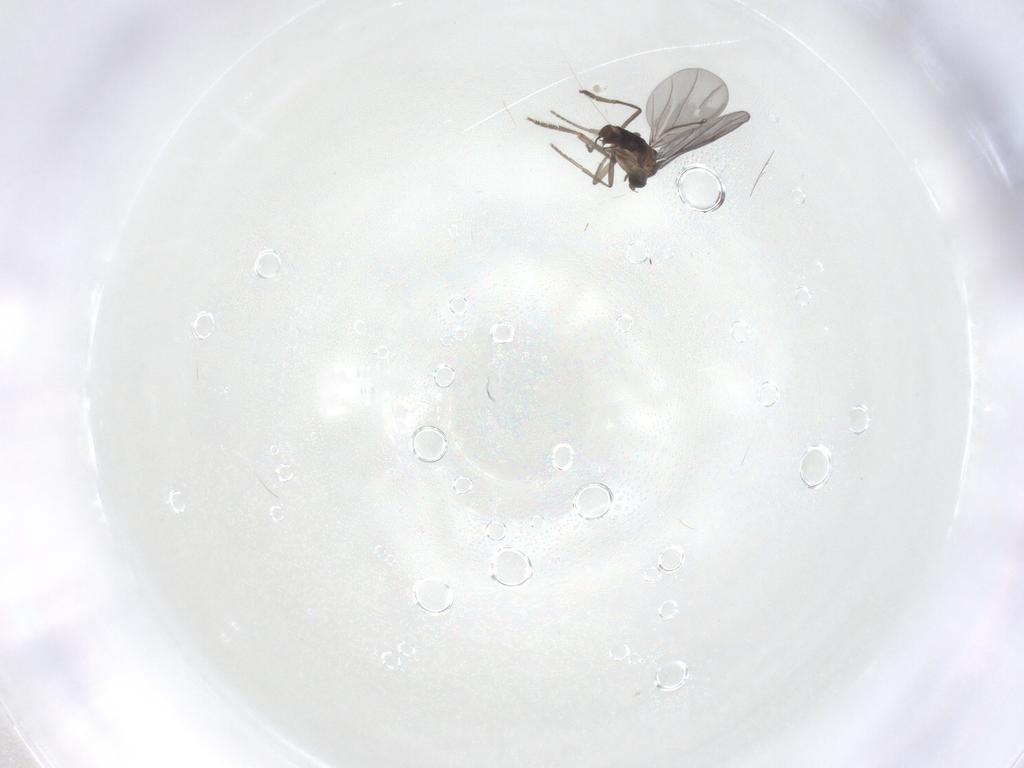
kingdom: Animalia
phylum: Arthropoda
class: Insecta
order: Diptera
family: Phoridae
